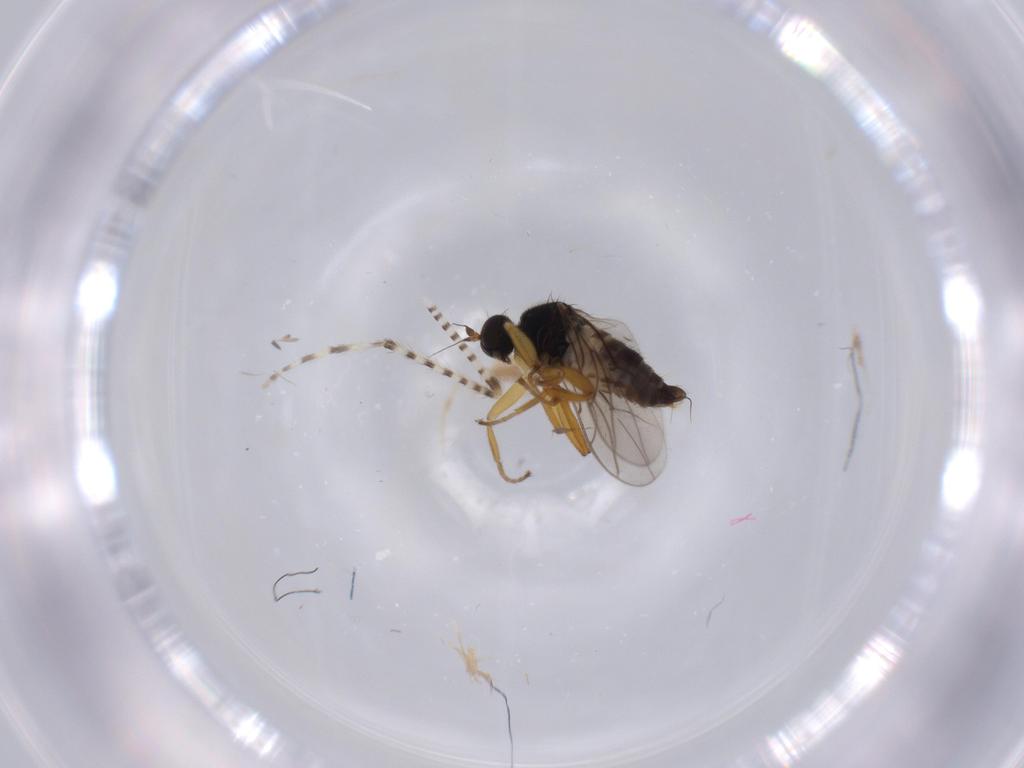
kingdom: Animalia
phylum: Arthropoda
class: Insecta
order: Diptera
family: Hybotidae
